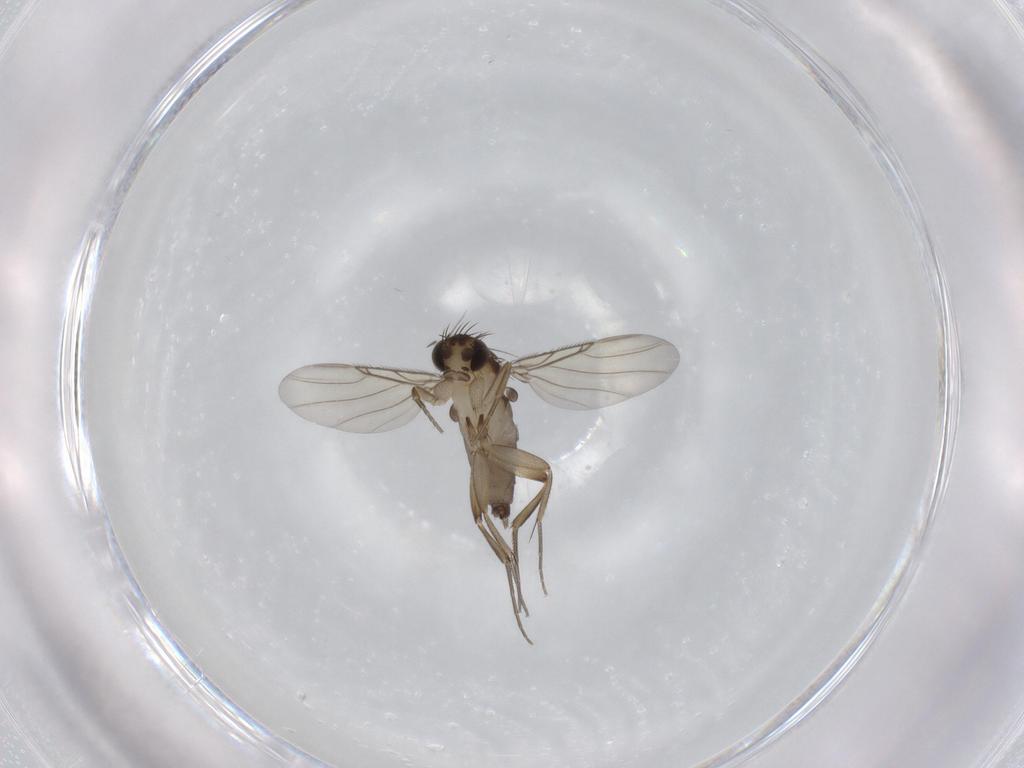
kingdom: Animalia
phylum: Arthropoda
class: Insecta
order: Diptera
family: Phoridae
